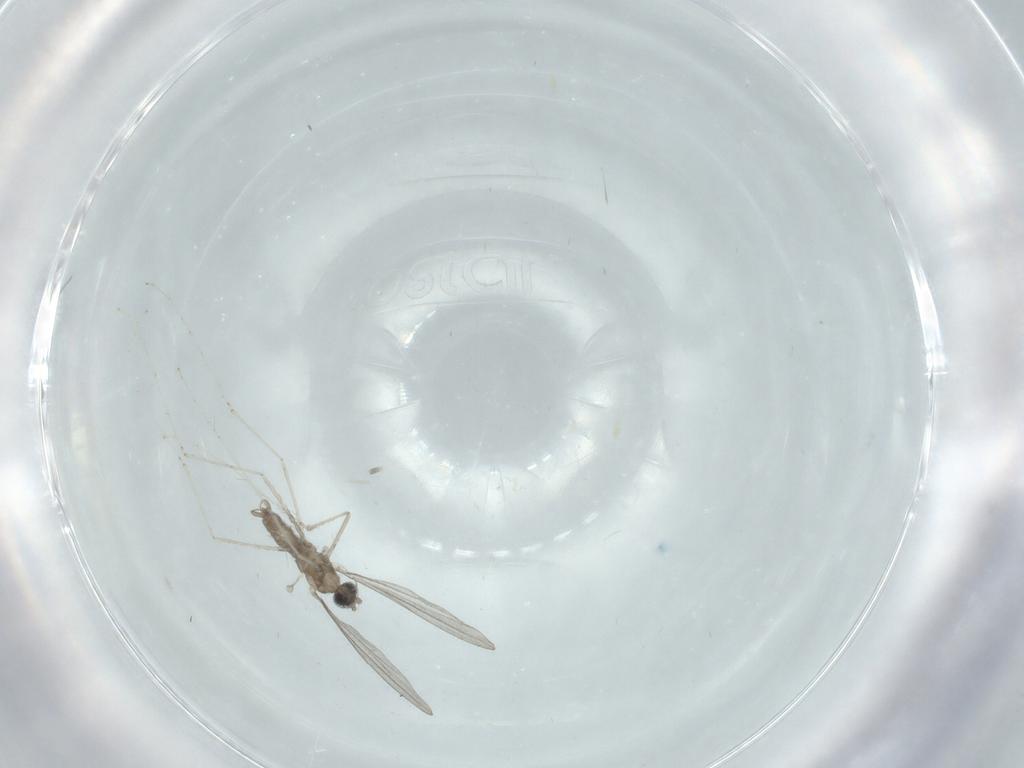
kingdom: Animalia
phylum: Arthropoda
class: Insecta
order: Diptera
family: Cecidomyiidae
